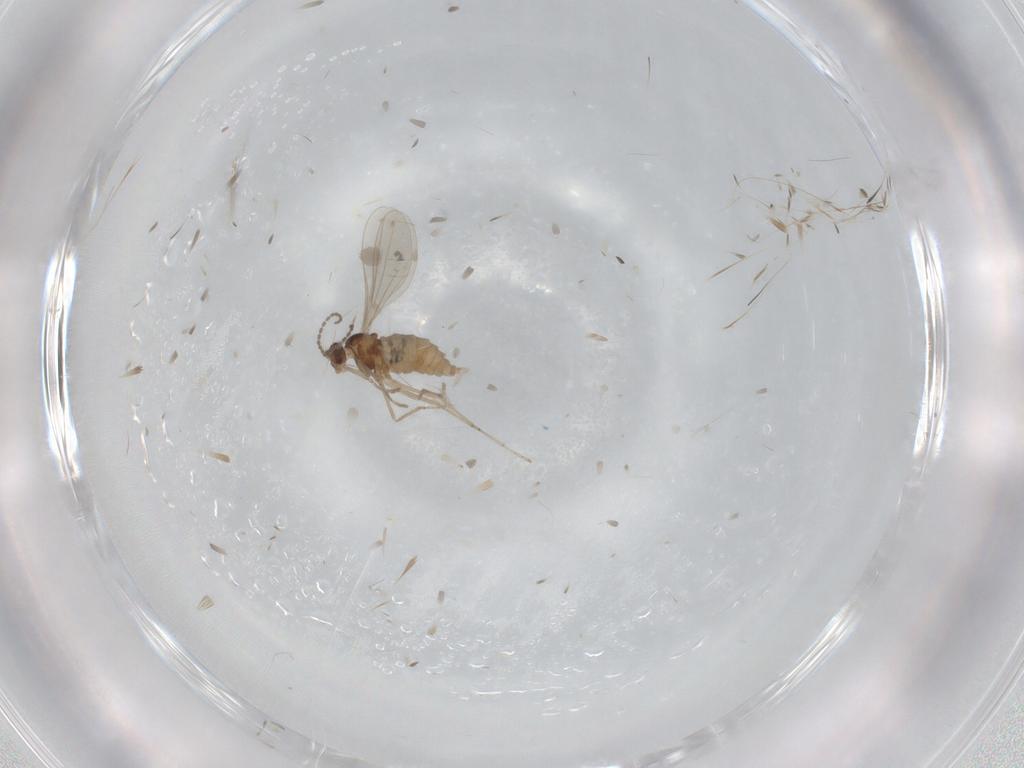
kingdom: Animalia
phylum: Arthropoda
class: Insecta
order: Diptera
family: Cecidomyiidae
